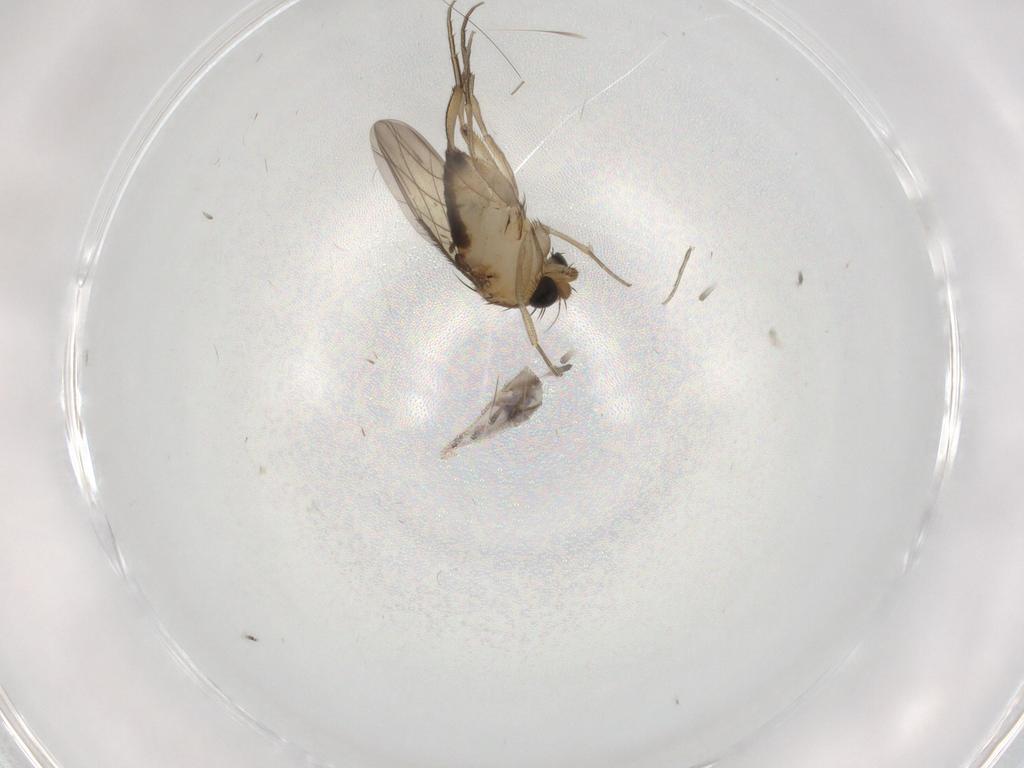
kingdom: Animalia
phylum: Arthropoda
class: Insecta
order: Diptera
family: Phoridae
